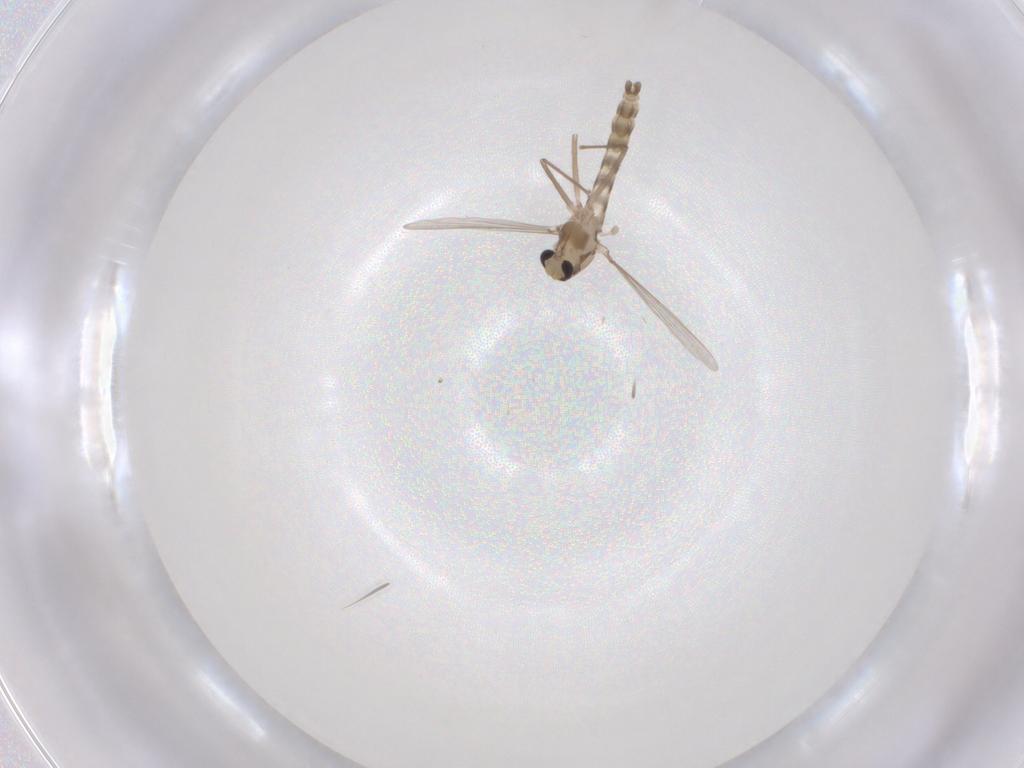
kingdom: Animalia
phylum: Arthropoda
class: Insecta
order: Diptera
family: Chironomidae
